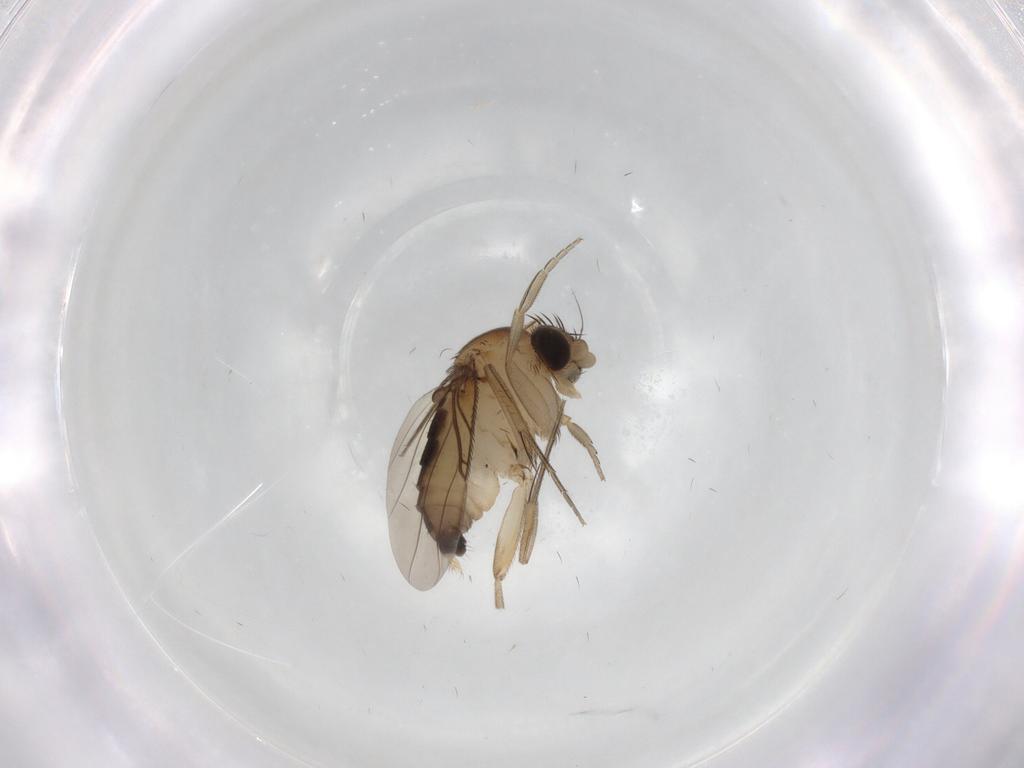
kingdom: Animalia
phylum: Arthropoda
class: Insecta
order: Diptera
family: Phoridae
